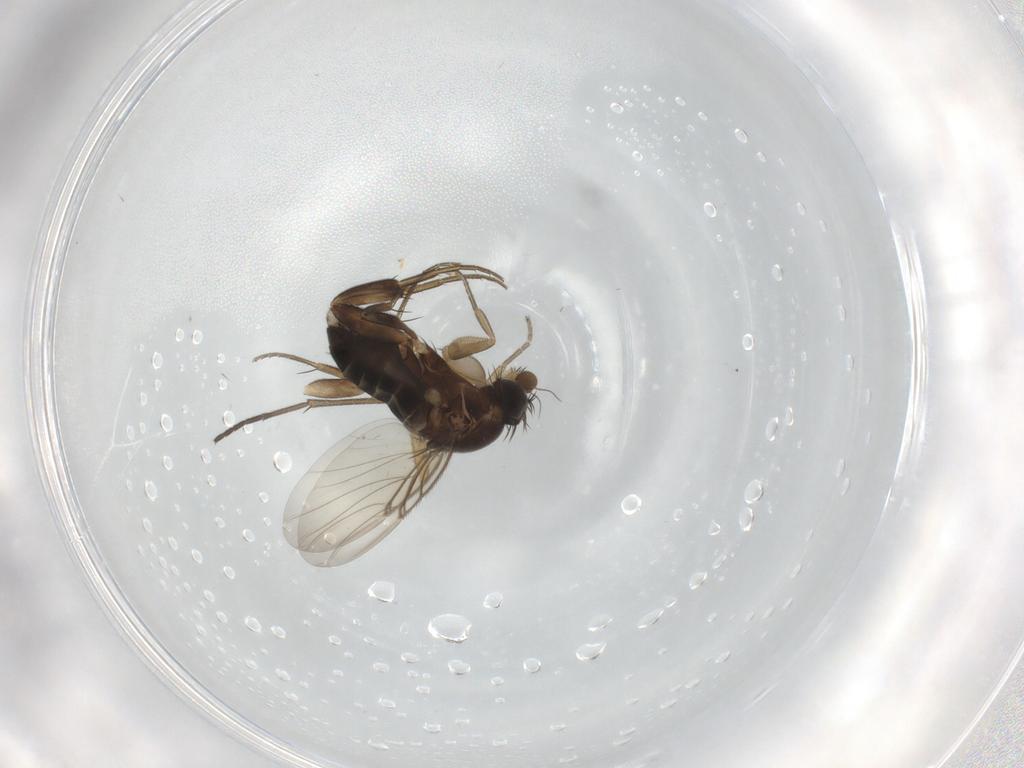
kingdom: Animalia
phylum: Arthropoda
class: Insecta
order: Diptera
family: Phoridae
